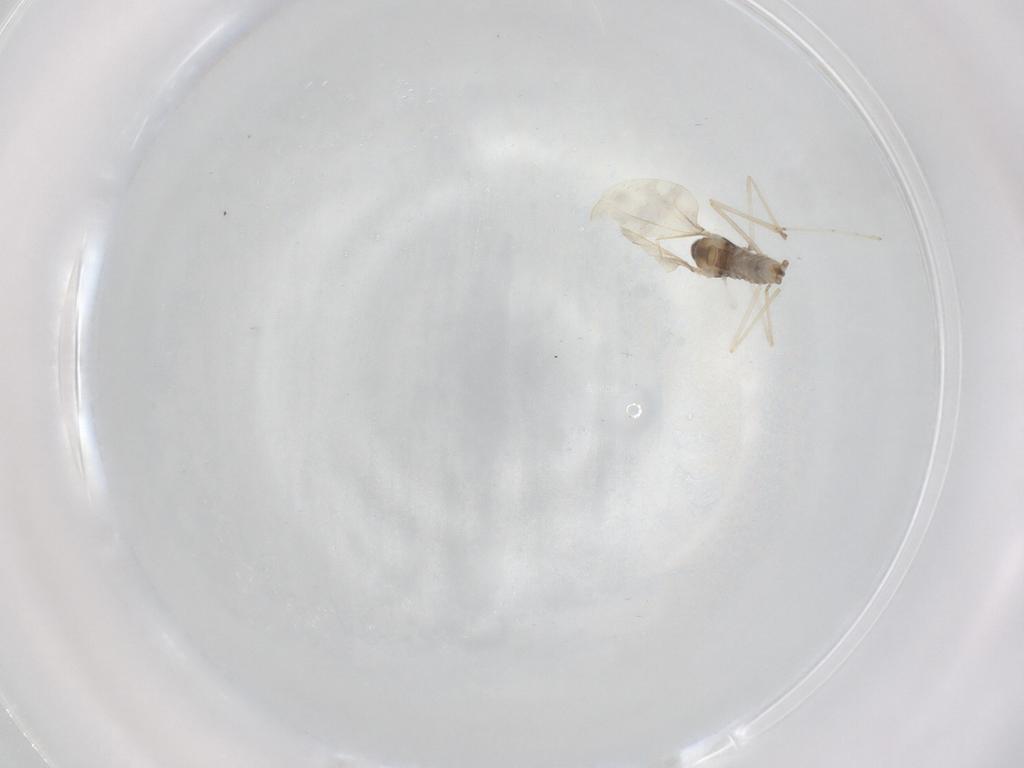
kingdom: Animalia
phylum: Arthropoda
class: Insecta
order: Diptera
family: Cecidomyiidae
